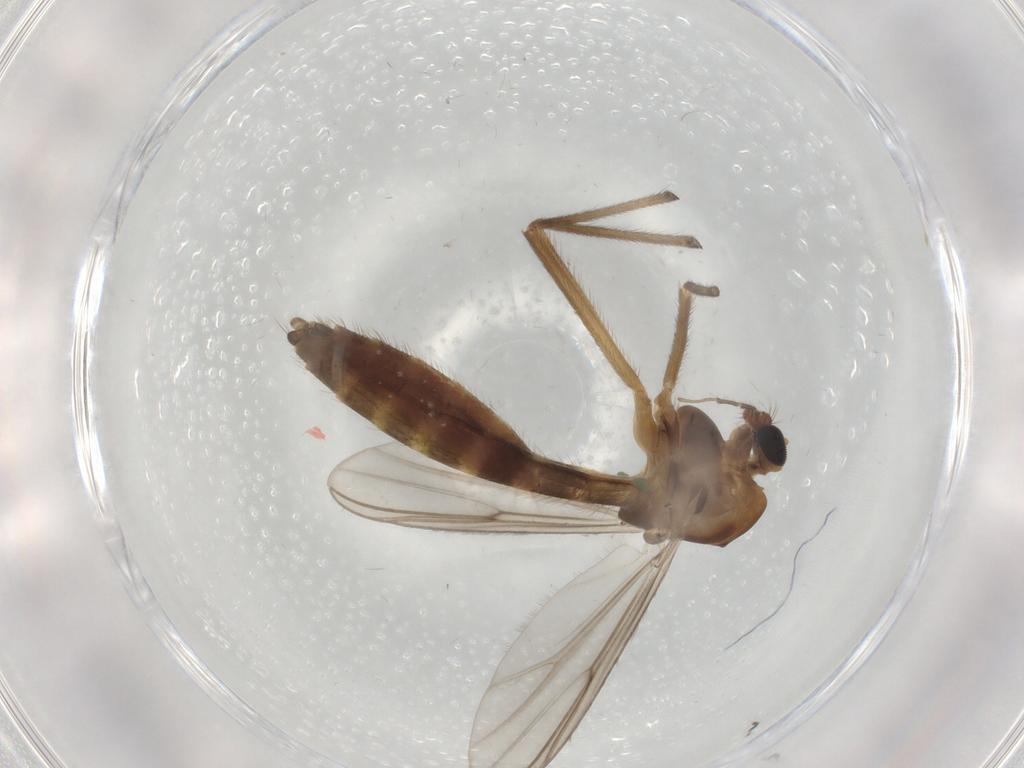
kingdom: Animalia
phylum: Arthropoda
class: Insecta
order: Diptera
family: Chironomidae
